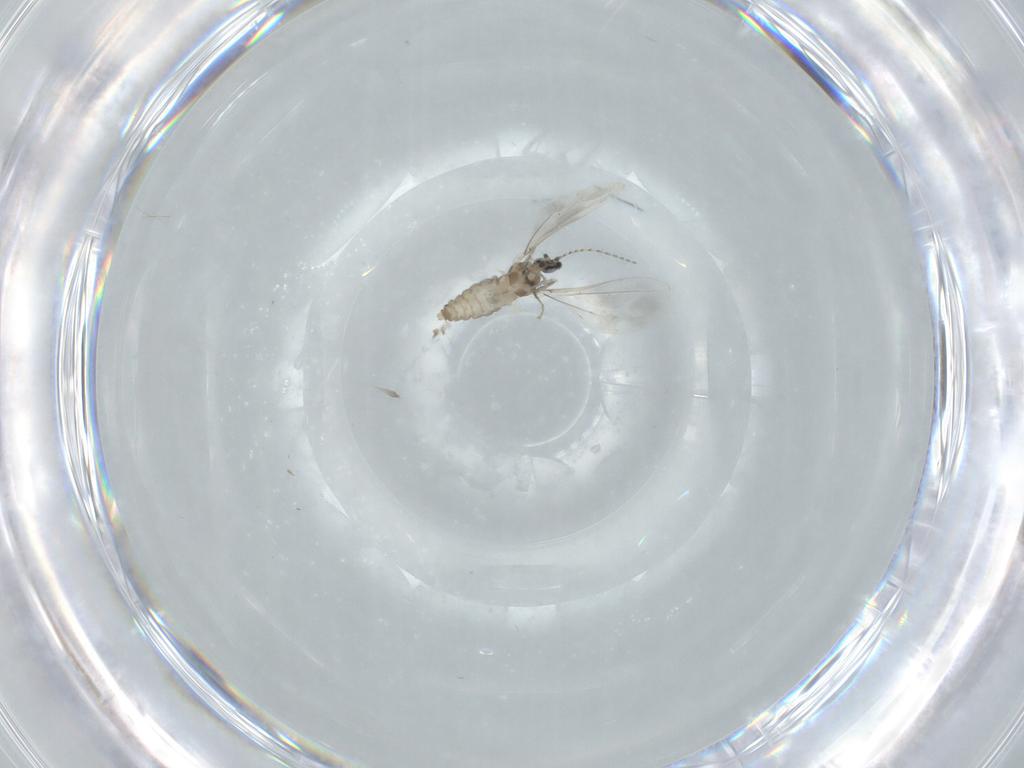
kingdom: Animalia
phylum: Arthropoda
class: Insecta
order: Diptera
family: Cecidomyiidae
